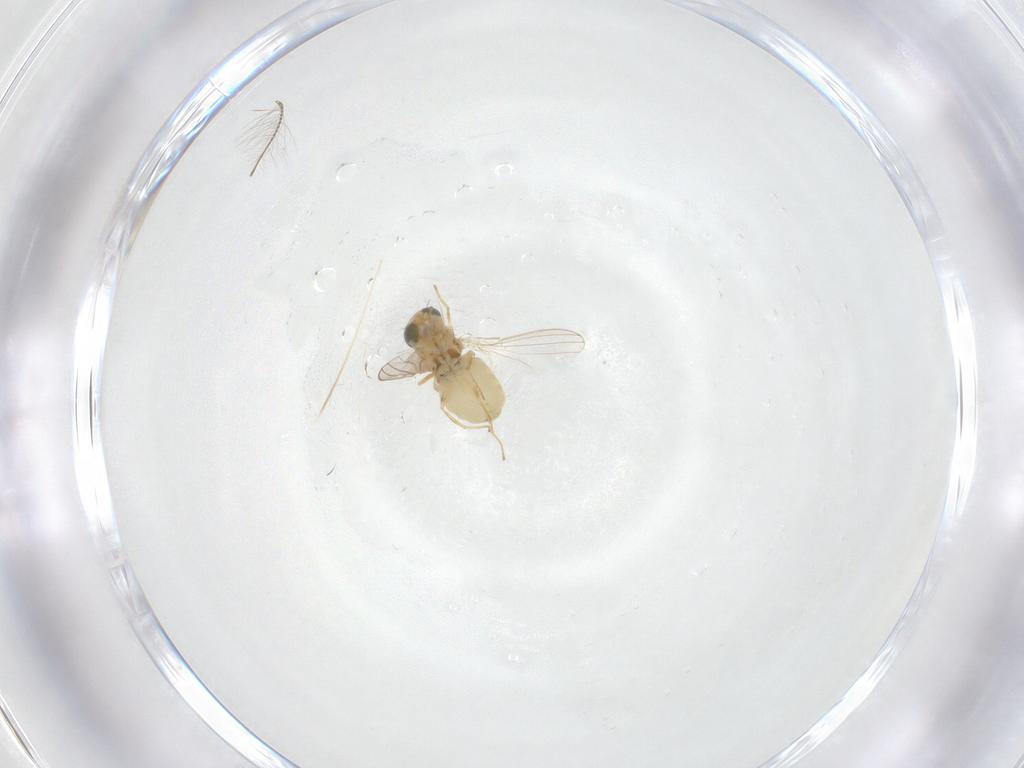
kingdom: Animalia
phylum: Arthropoda
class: Insecta
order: Diptera
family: Chyromyidae
